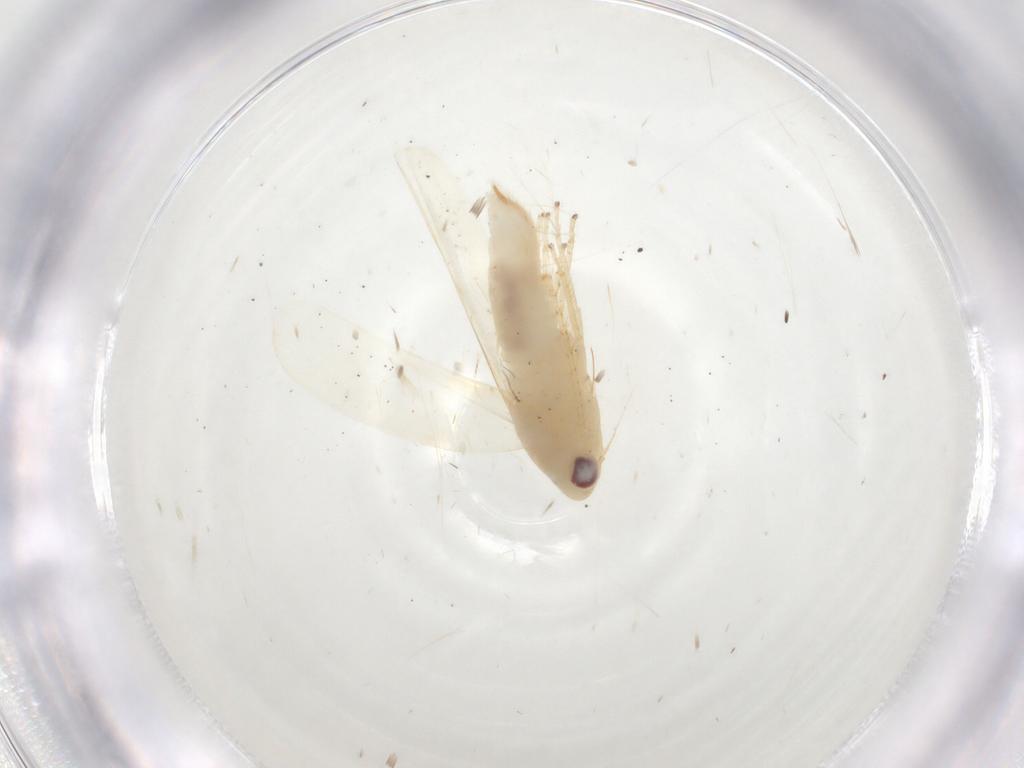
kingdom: Animalia
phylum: Arthropoda
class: Insecta
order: Hemiptera
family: Cicadellidae
